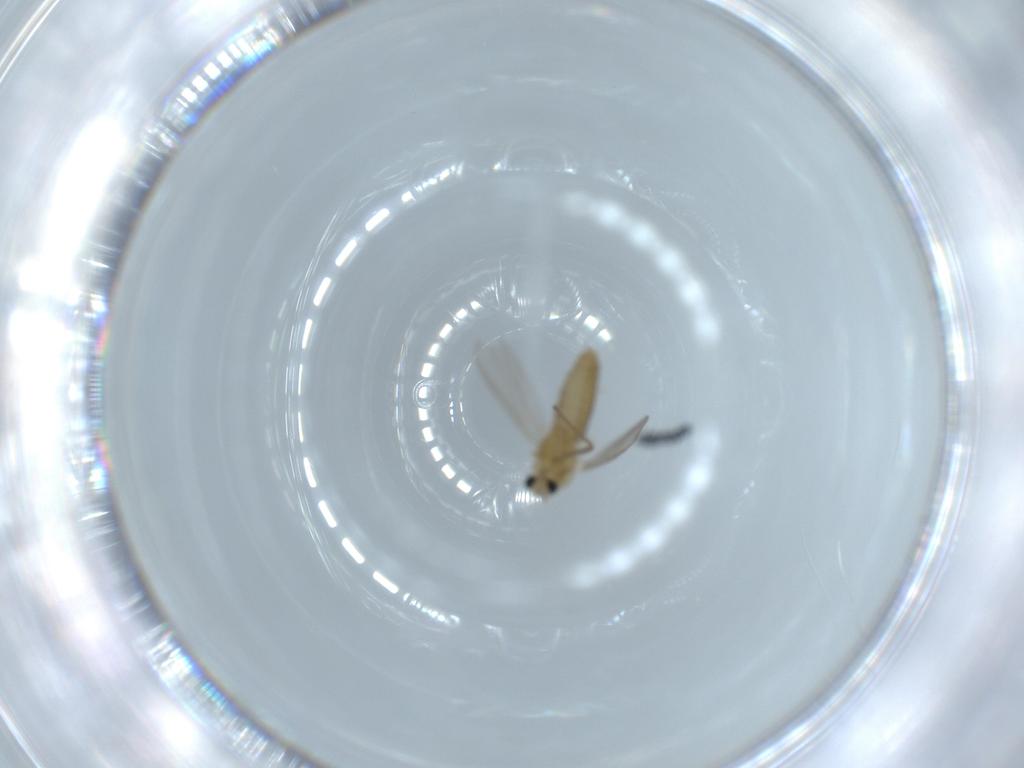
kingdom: Animalia
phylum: Arthropoda
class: Insecta
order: Diptera
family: Chironomidae
